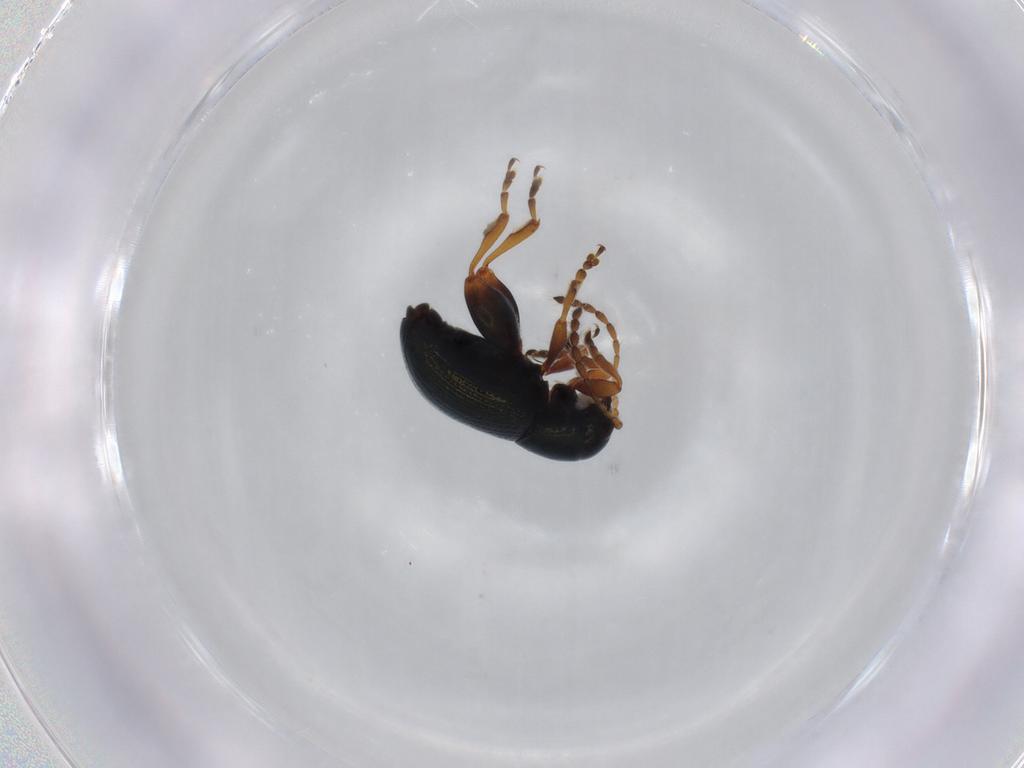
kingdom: Animalia
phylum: Arthropoda
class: Insecta
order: Coleoptera
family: Chrysomelidae
